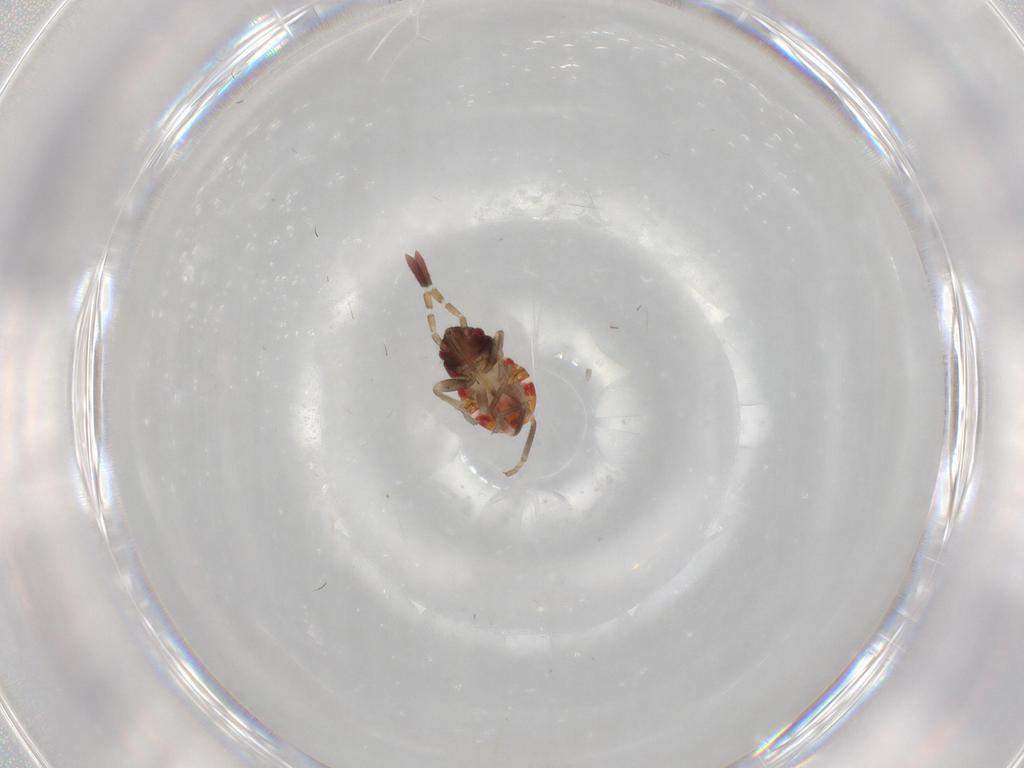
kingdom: Animalia
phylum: Arthropoda
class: Insecta
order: Hemiptera
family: Rhyparochromidae
